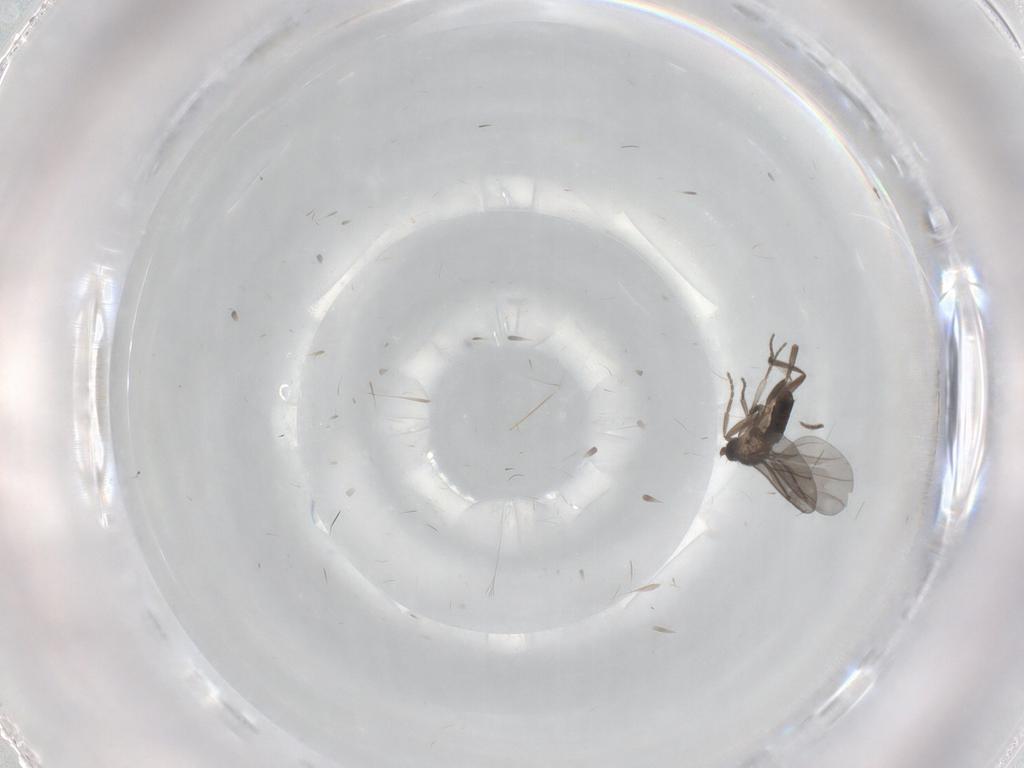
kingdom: Animalia
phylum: Arthropoda
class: Insecta
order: Diptera
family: Phoridae
